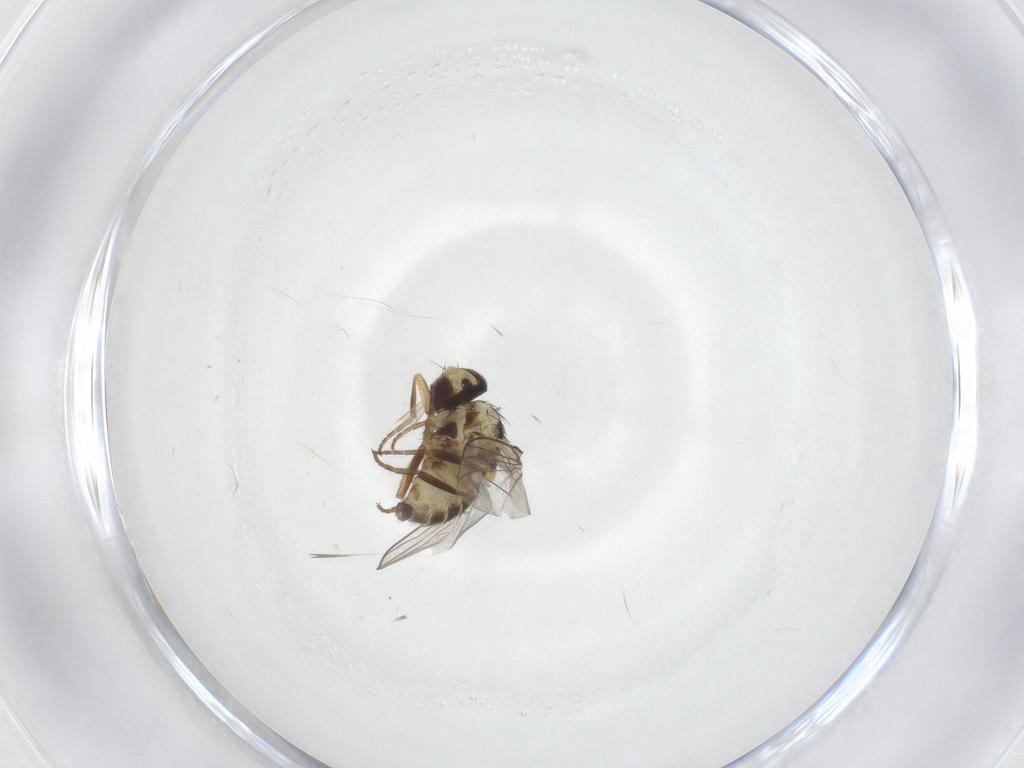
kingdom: Animalia
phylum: Arthropoda
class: Insecta
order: Diptera
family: Agromyzidae
